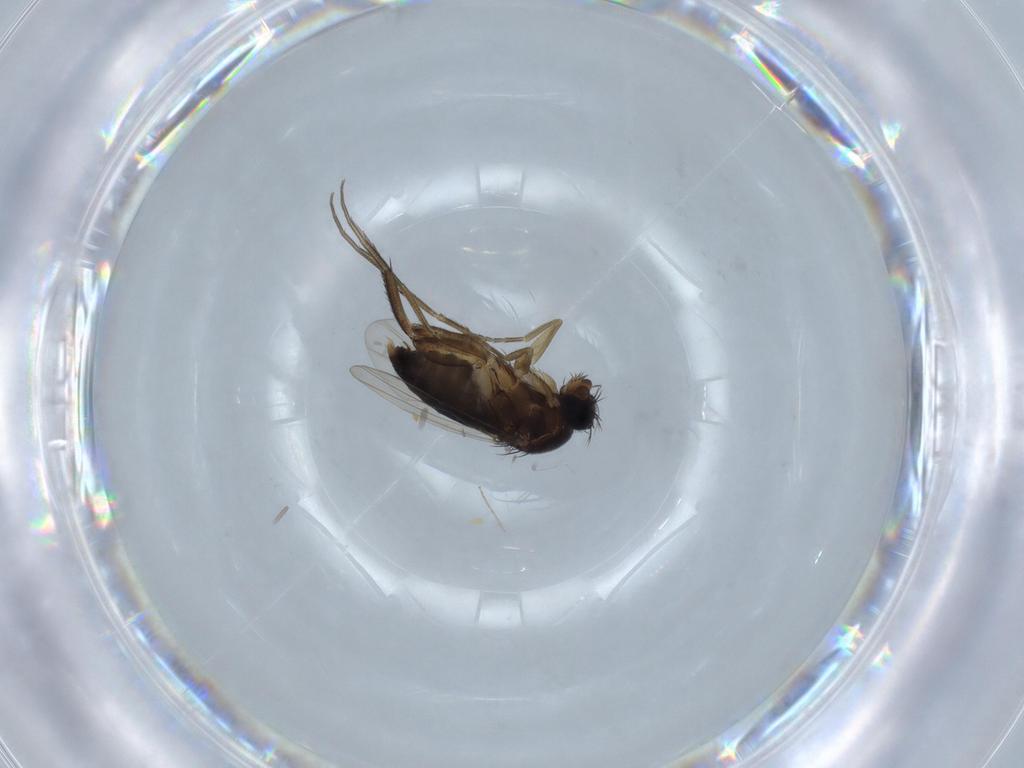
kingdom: Animalia
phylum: Arthropoda
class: Insecta
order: Diptera
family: Phoridae
